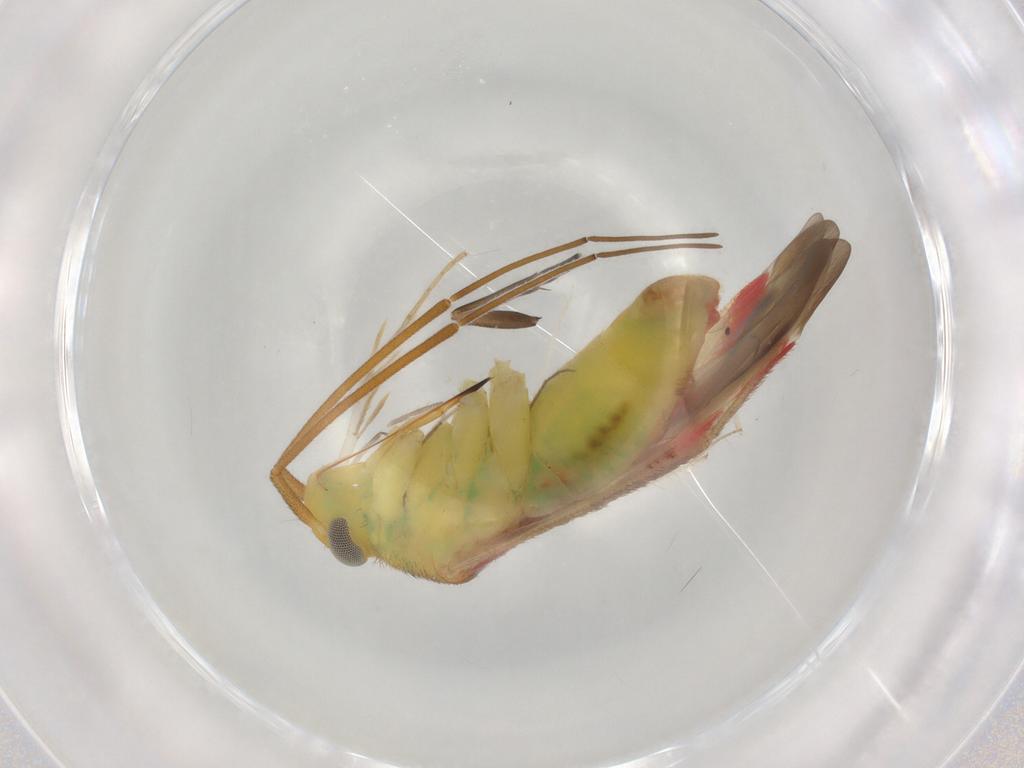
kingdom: Animalia
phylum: Arthropoda
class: Insecta
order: Hemiptera
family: Miridae
